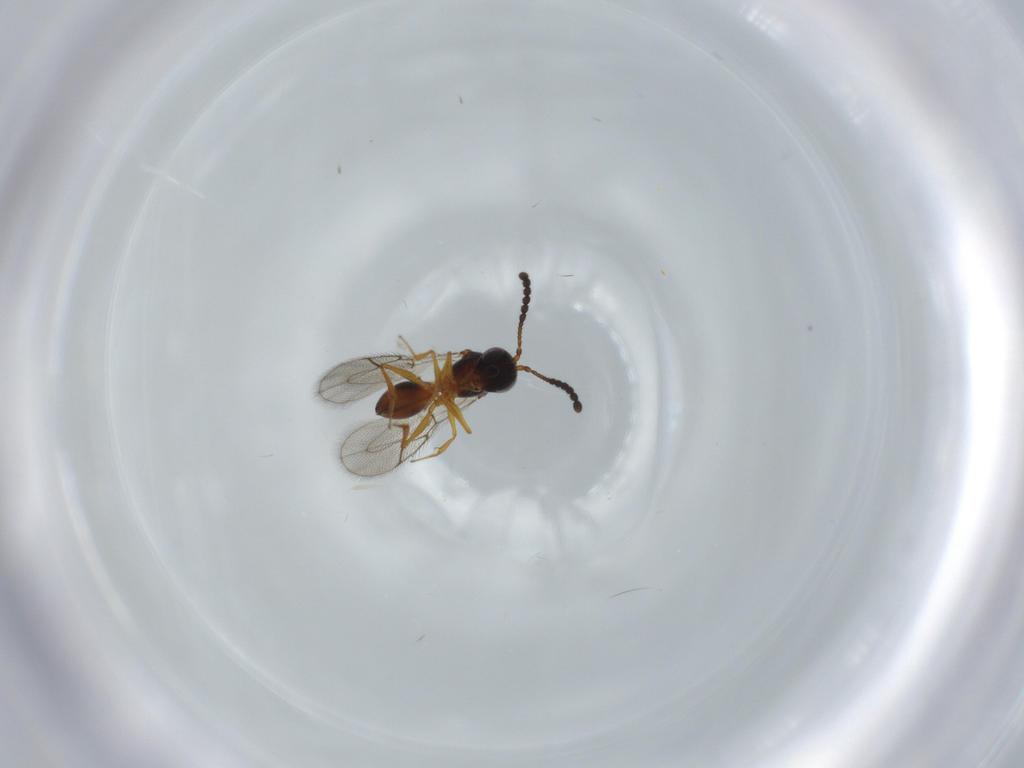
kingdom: Animalia
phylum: Arthropoda
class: Insecta
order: Hymenoptera
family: Figitidae
